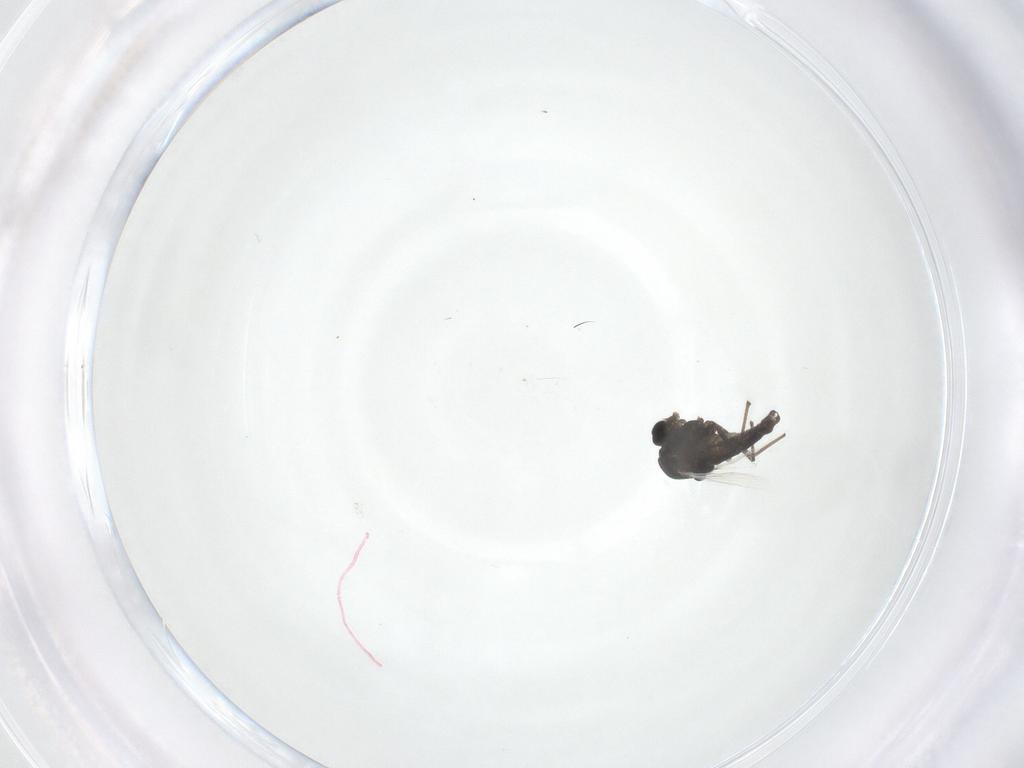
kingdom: Animalia
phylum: Arthropoda
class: Insecta
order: Diptera
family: Chironomidae
